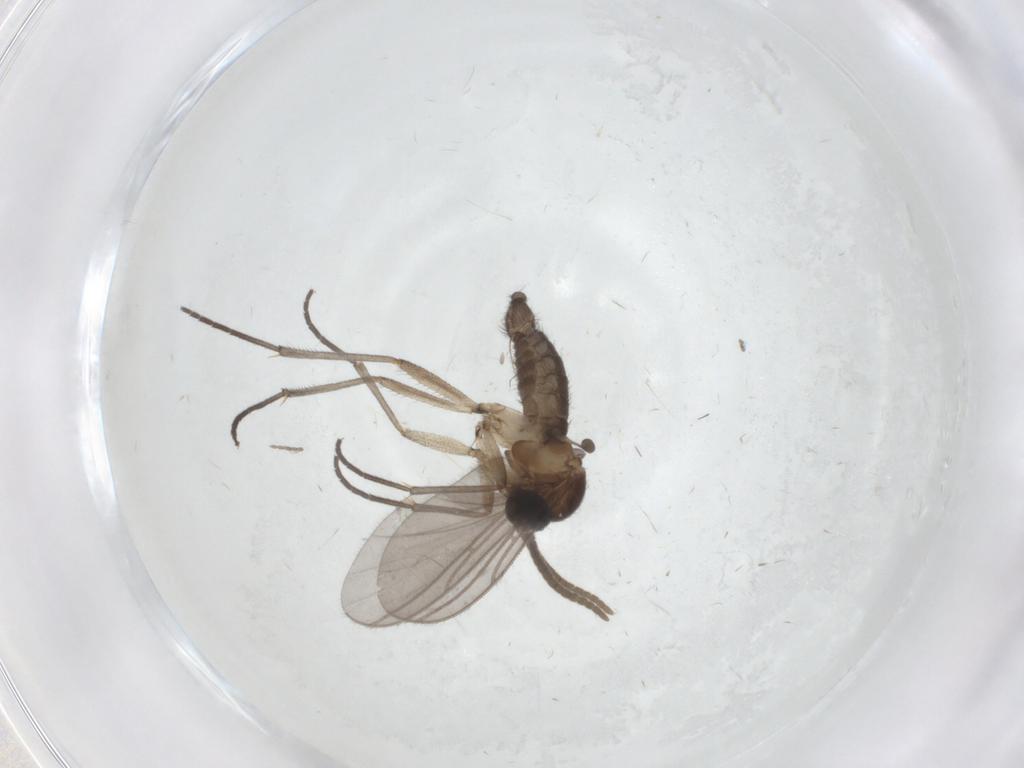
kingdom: Animalia
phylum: Arthropoda
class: Insecta
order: Diptera
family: Cecidomyiidae
